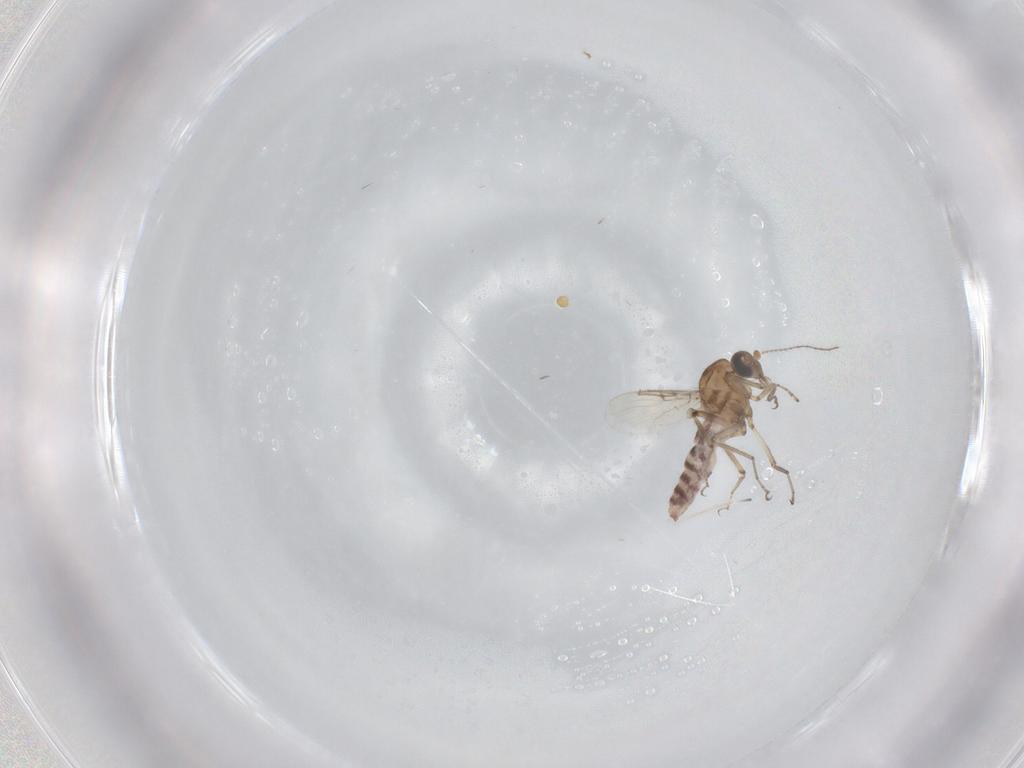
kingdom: Animalia
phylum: Arthropoda
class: Insecta
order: Diptera
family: Ceratopogonidae
